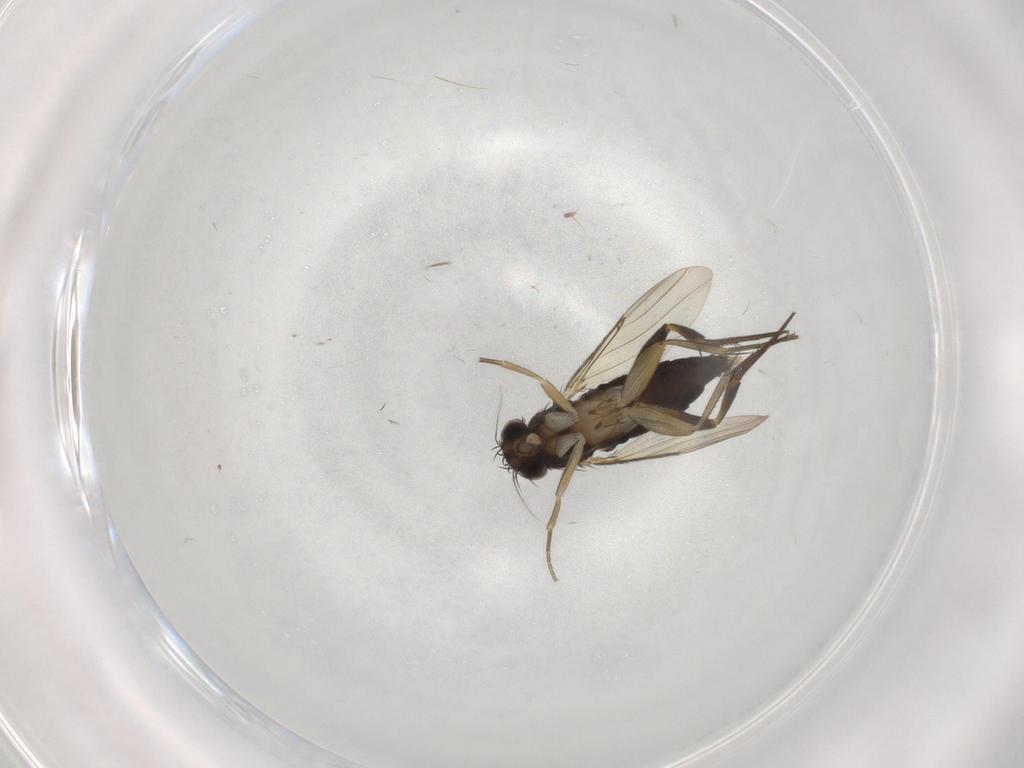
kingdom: Animalia
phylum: Arthropoda
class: Insecta
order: Diptera
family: Phoridae
